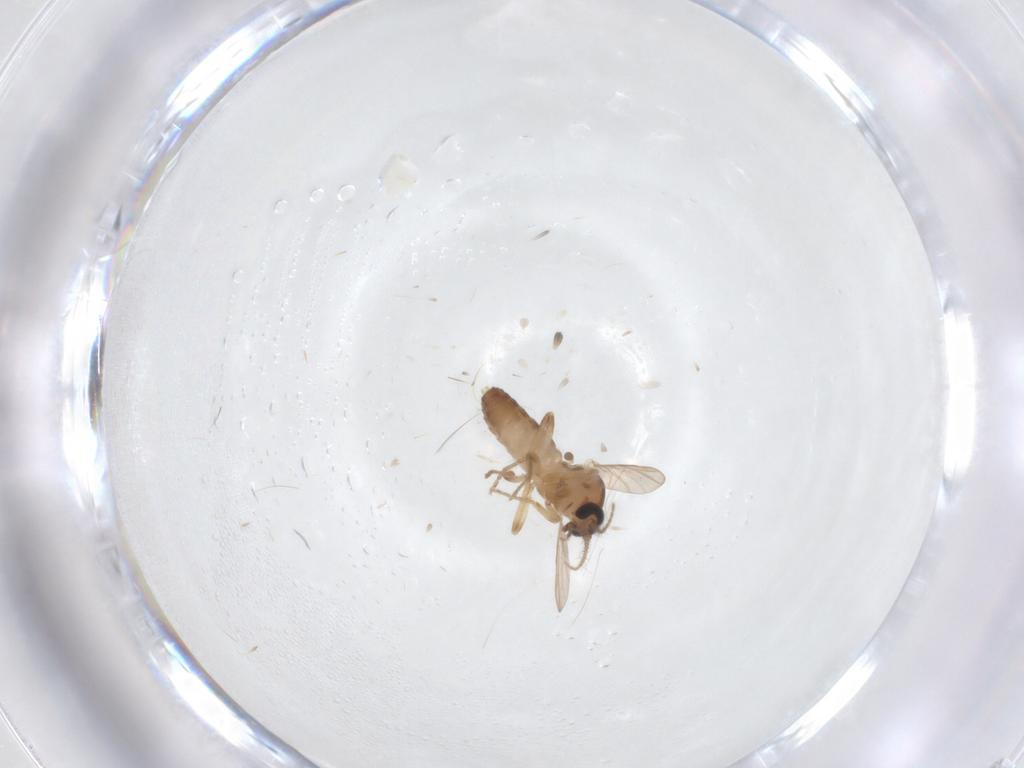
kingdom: Animalia
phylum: Arthropoda
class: Insecta
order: Diptera
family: Ceratopogonidae
